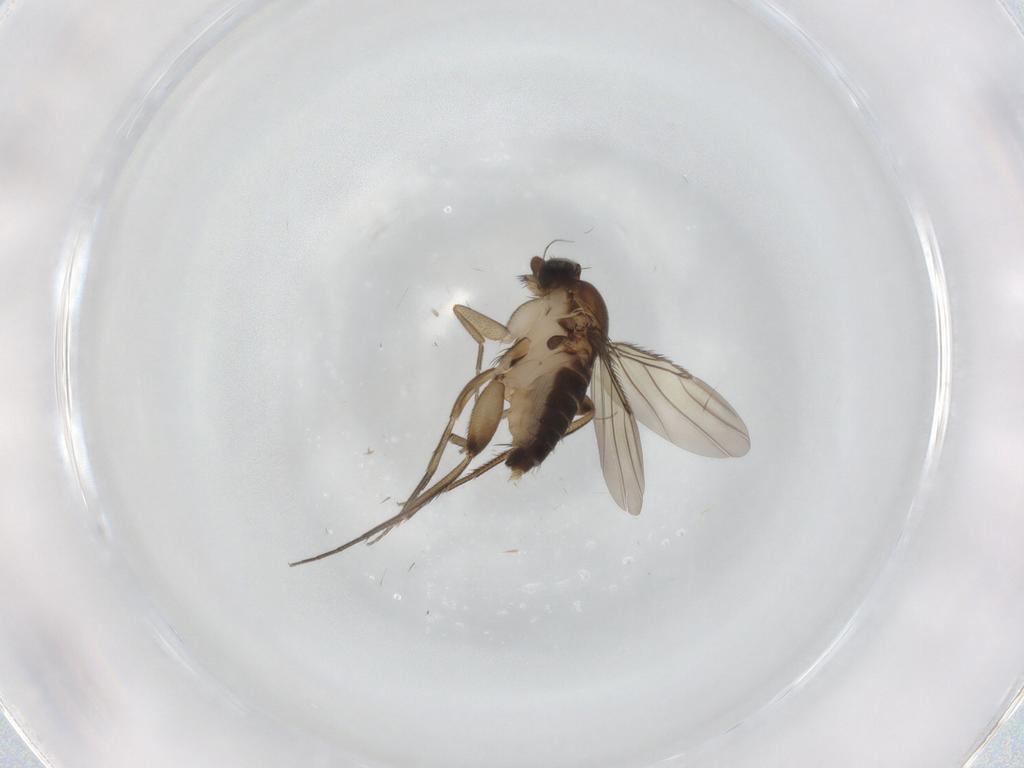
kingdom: Animalia
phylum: Arthropoda
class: Insecta
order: Diptera
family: Phoridae
